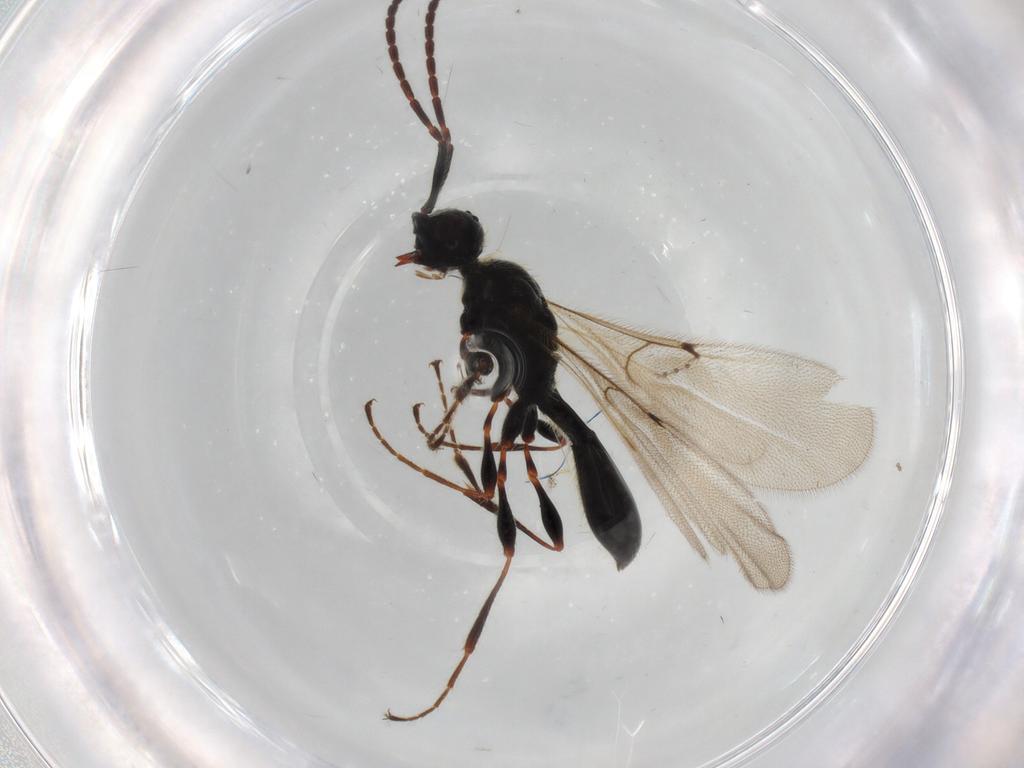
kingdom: Animalia
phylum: Arthropoda
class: Insecta
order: Hymenoptera
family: Diapriidae
